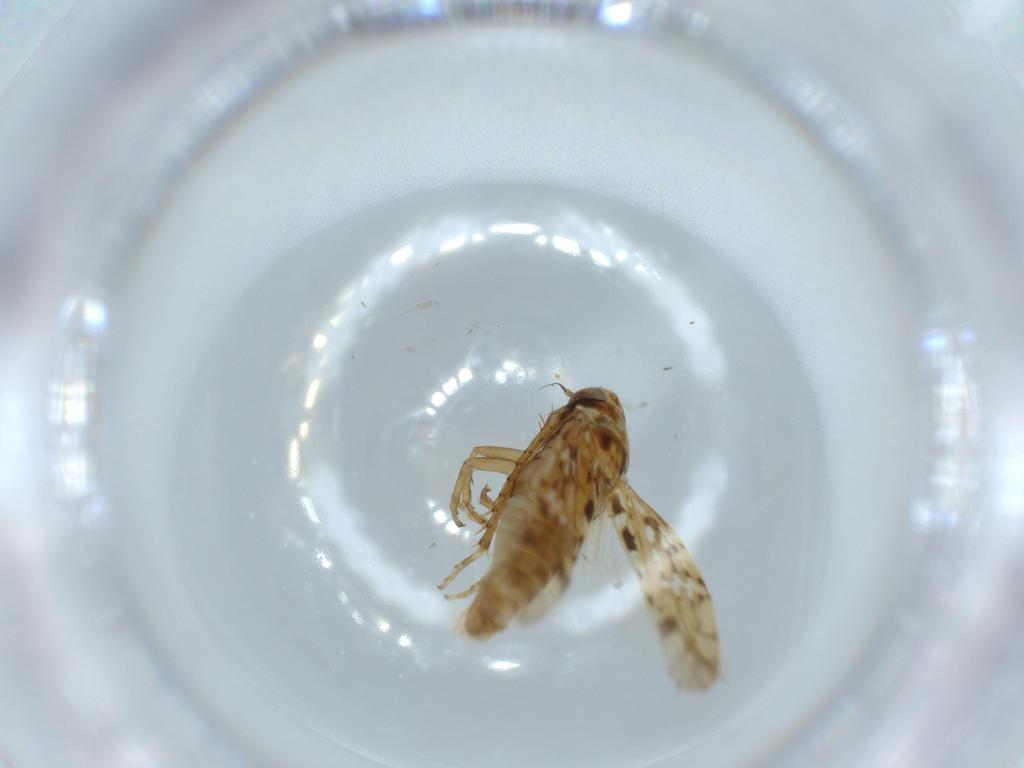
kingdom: Animalia
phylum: Arthropoda
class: Insecta
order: Hemiptera
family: Cicadellidae
